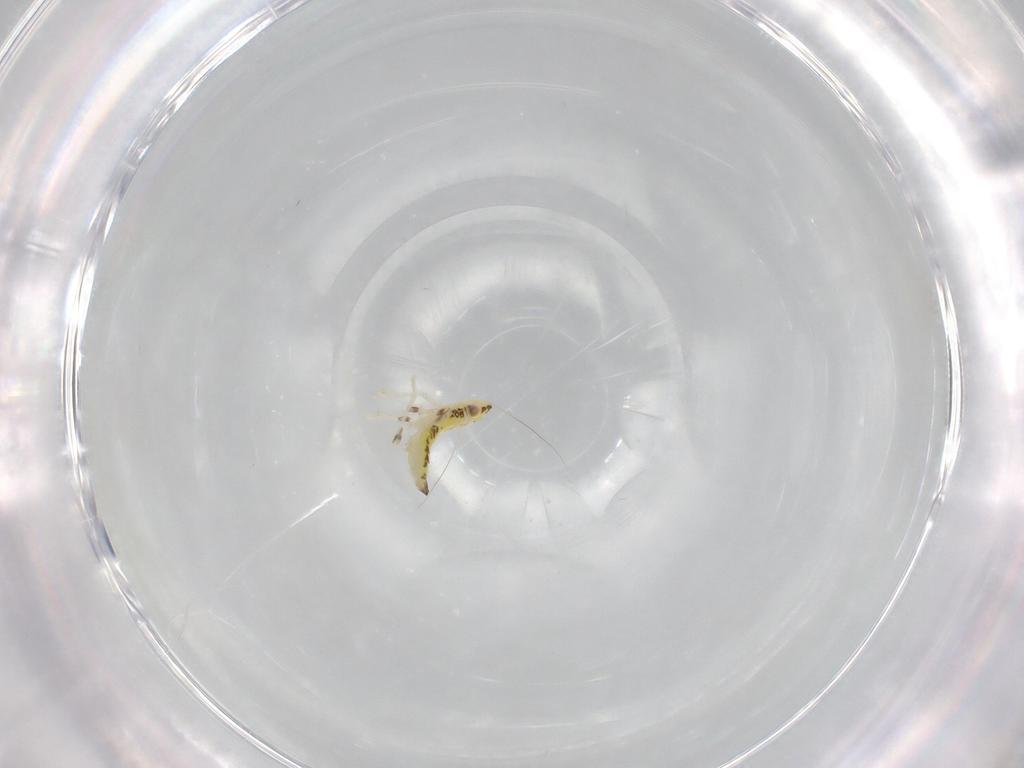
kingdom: Animalia
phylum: Arthropoda
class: Insecta
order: Hemiptera
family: Cicadellidae
